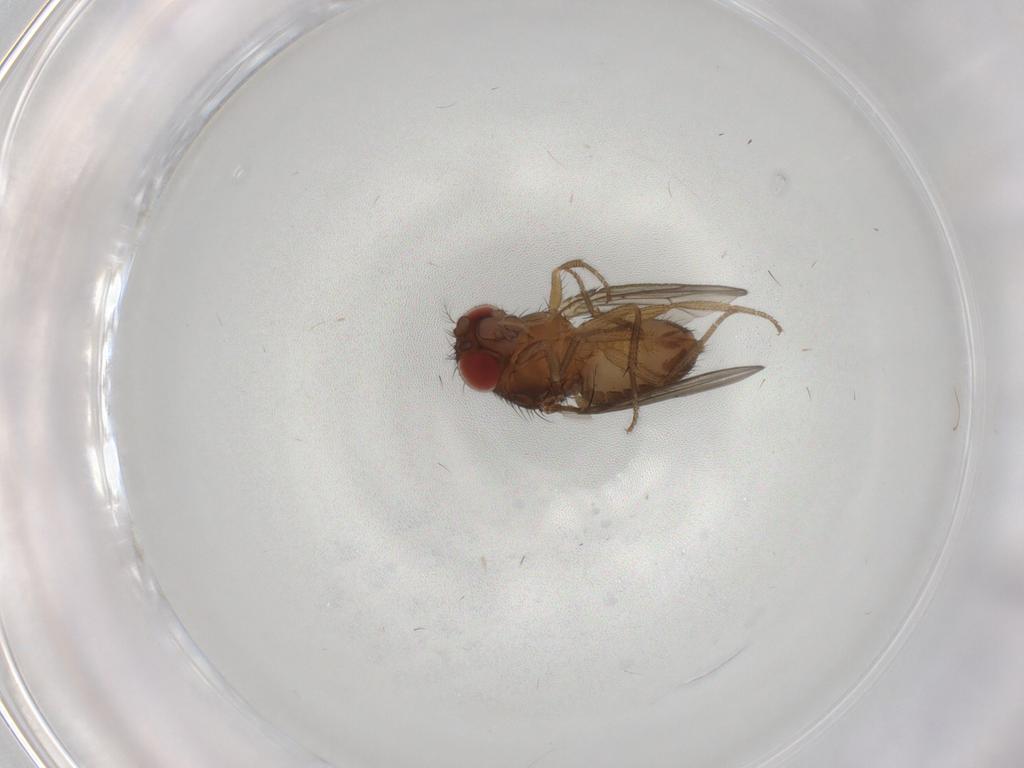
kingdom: Animalia
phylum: Arthropoda
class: Insecta
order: Diptera
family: Drosophilidae
